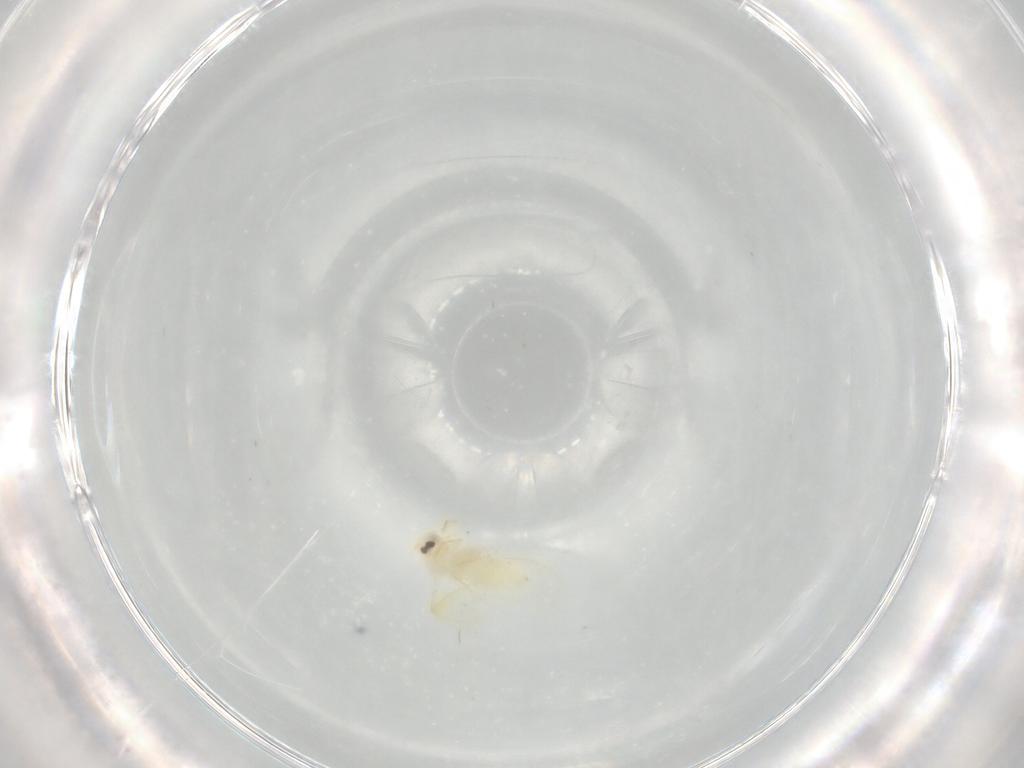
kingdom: Animalia
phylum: Arthropoda
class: Insecta
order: Hemiptera
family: Aleyrodidae
